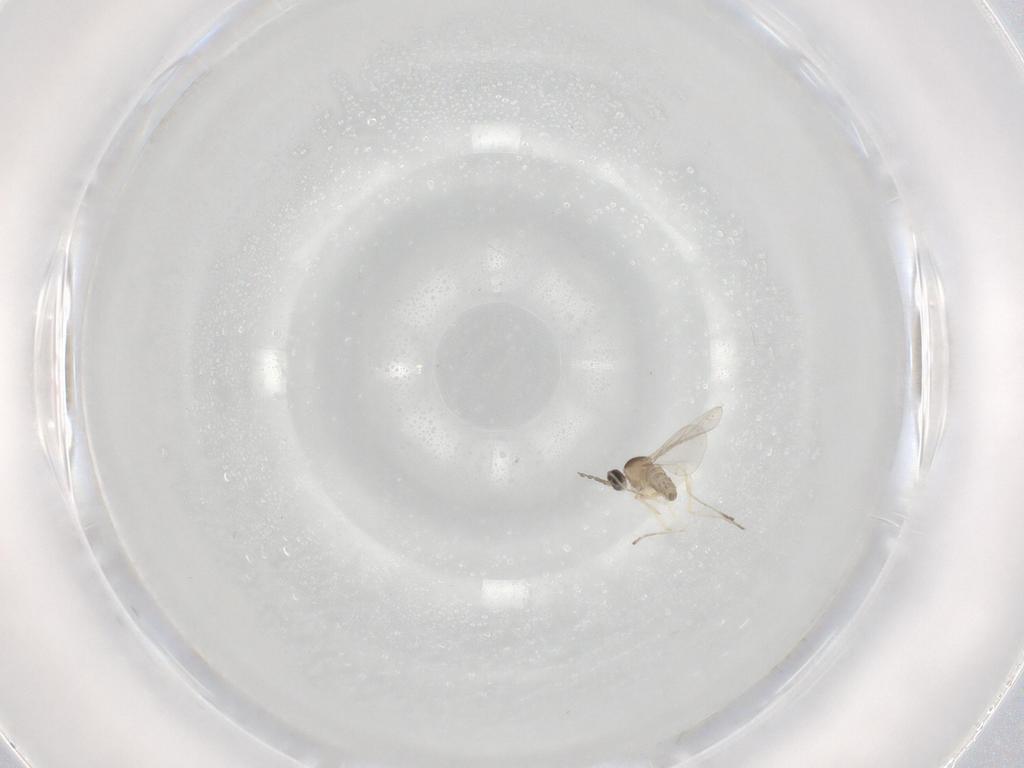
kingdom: Animalia
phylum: Arthropoda
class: Insecta
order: Diptera
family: Cecidomyiidae
